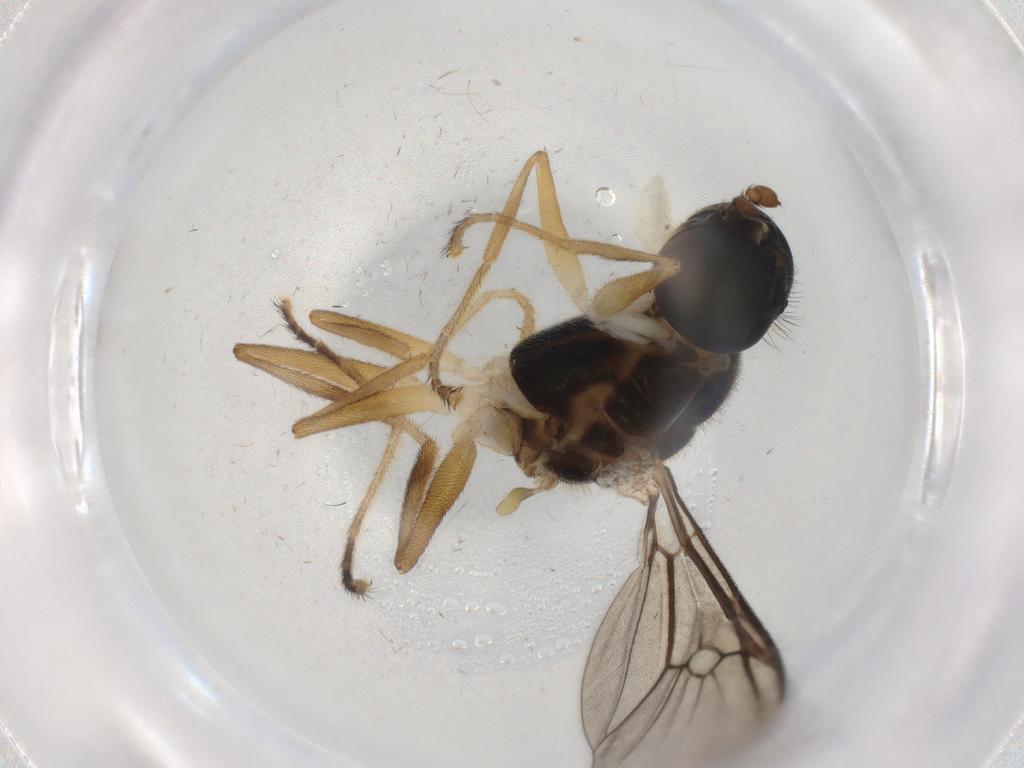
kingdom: Animalia
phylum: Arthropoda
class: Insecta
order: Diptera
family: Dolichopodidae
